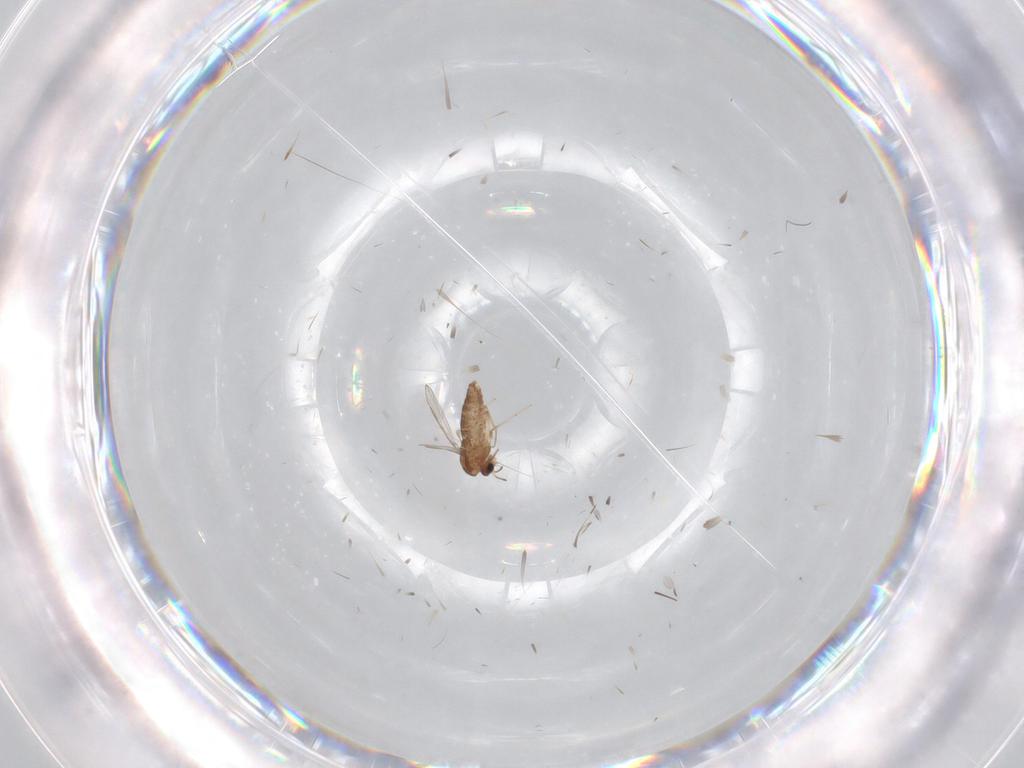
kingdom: Animalia
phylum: Arthropoda
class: Insecta
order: Diptera
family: Chironomidae
